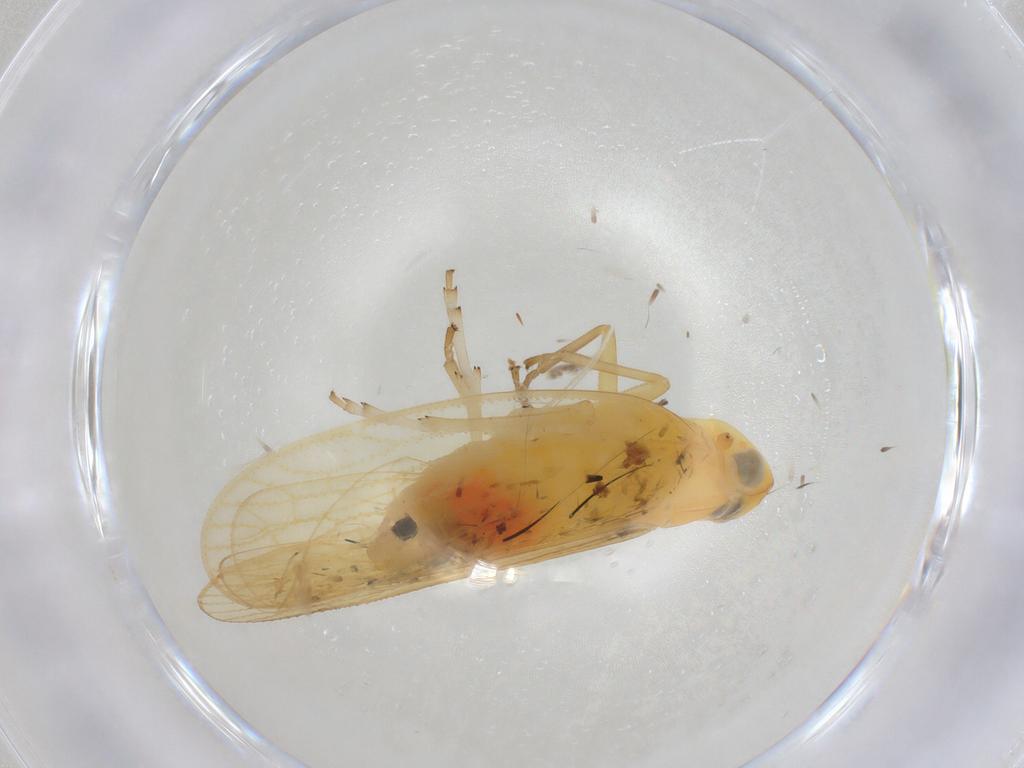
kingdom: Animalia
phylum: Arthropoda
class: Insecta
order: Hemiptera
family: Cixiidae
